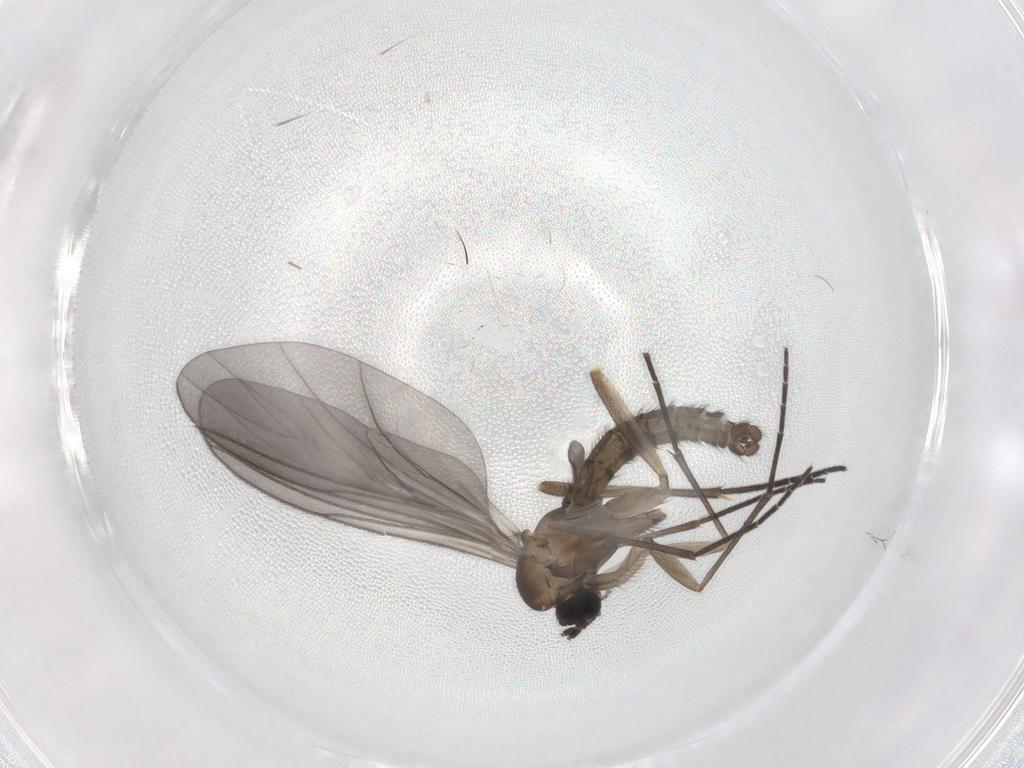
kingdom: Animalia
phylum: Arthropoda
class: Insecta
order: Diptera
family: Sciaridae
